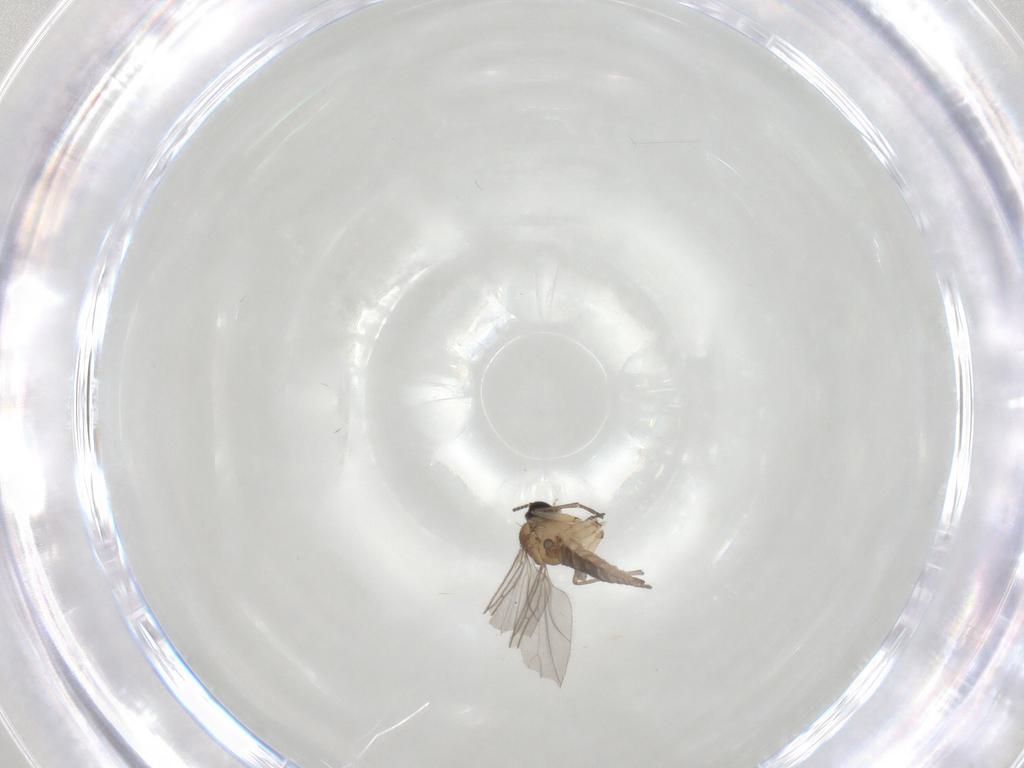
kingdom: Animalia
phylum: Arthropoda
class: Insecta
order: Diptera
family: Sciaridae
